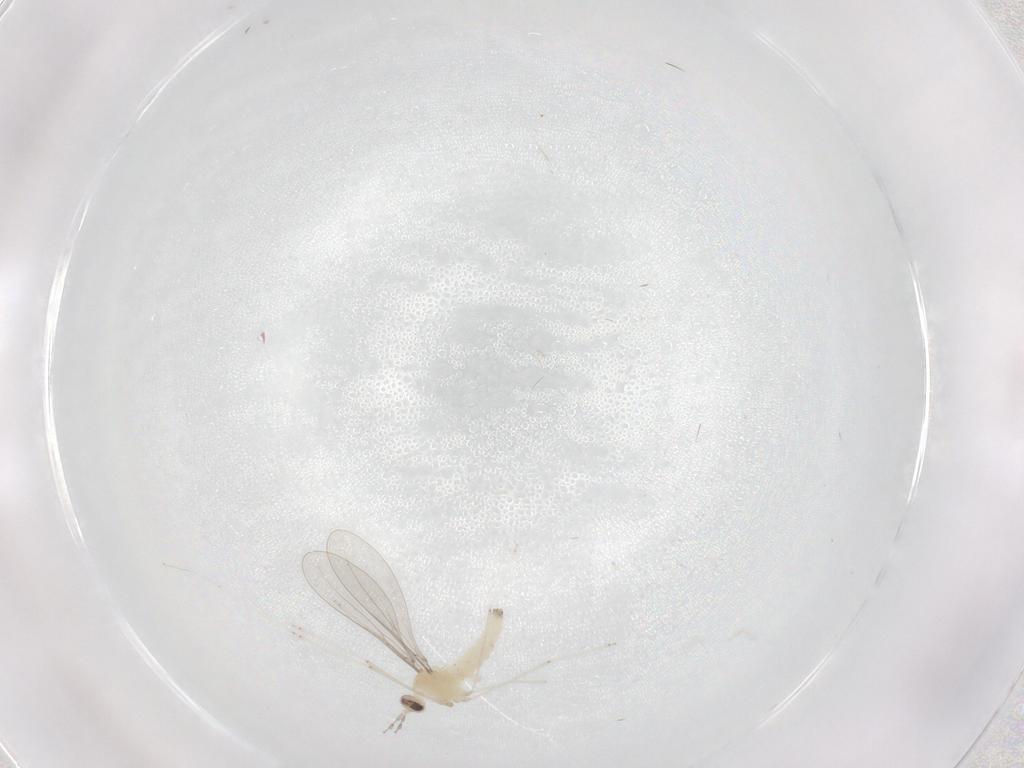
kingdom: Animalia
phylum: Arthropoda
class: Insecta
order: Diptera
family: Cecidomyiidae
